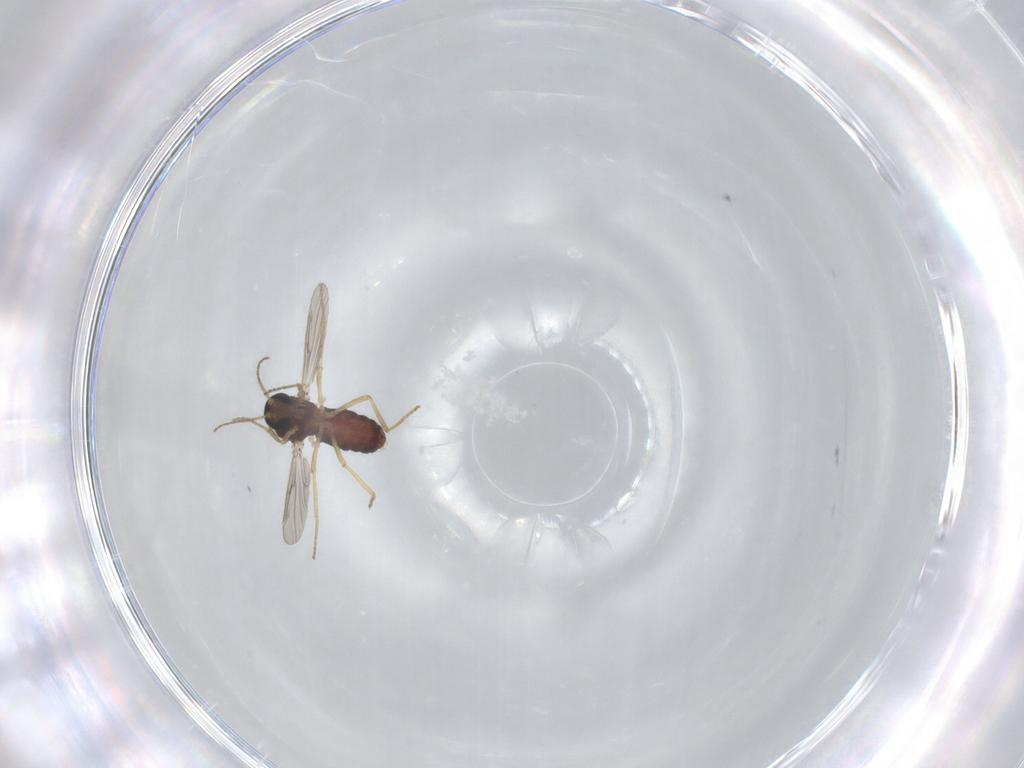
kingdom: Animalia
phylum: Arthropoda
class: Insecta
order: Diptera
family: Ceratopogonidae
